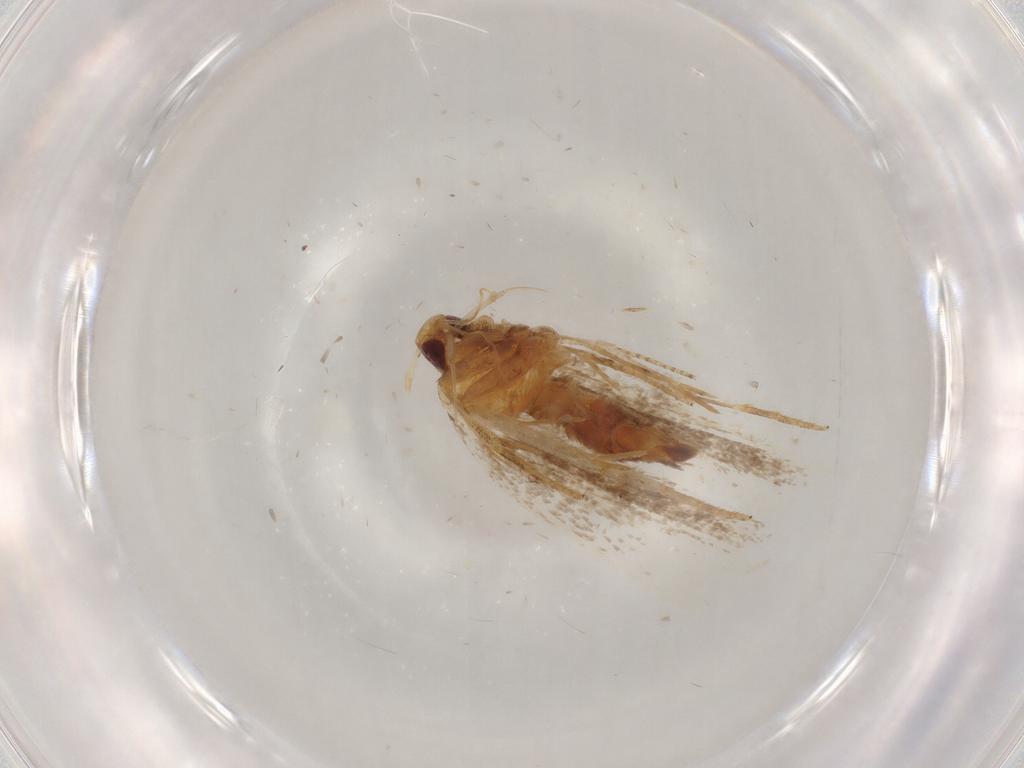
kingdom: Animalia
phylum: Arthropoda
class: Insecta
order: Lepidoptera
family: Gelechiidae
